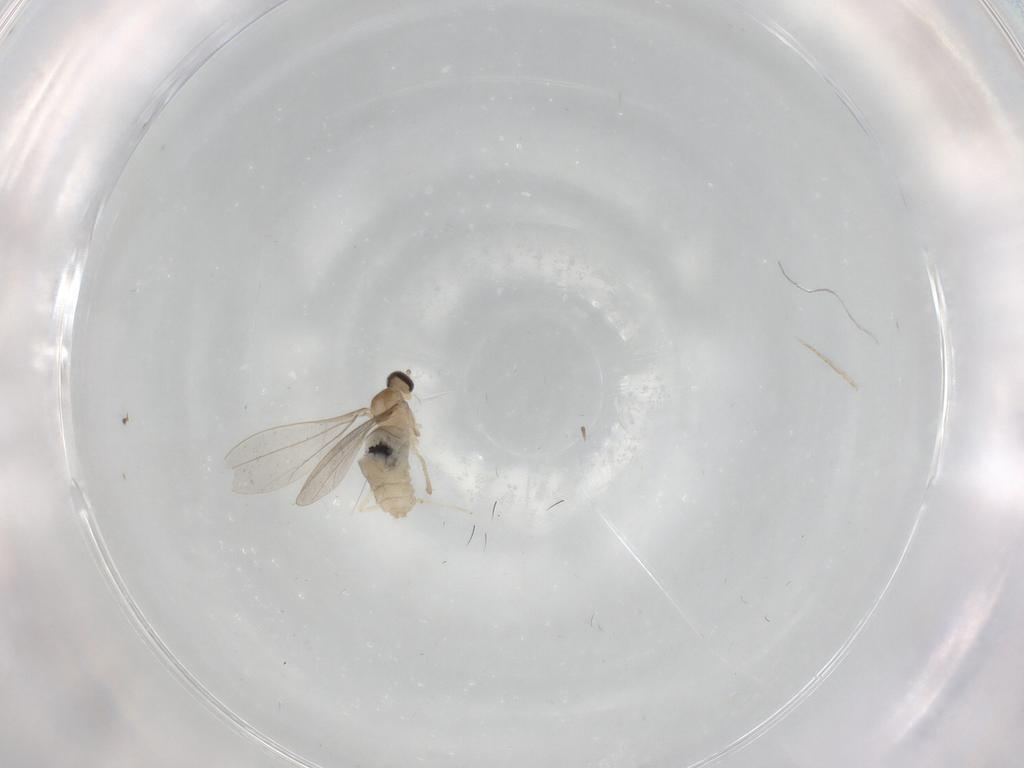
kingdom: Animalia
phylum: Arthropoda
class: Insecta
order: Diptera
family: Cecidomyiidae
